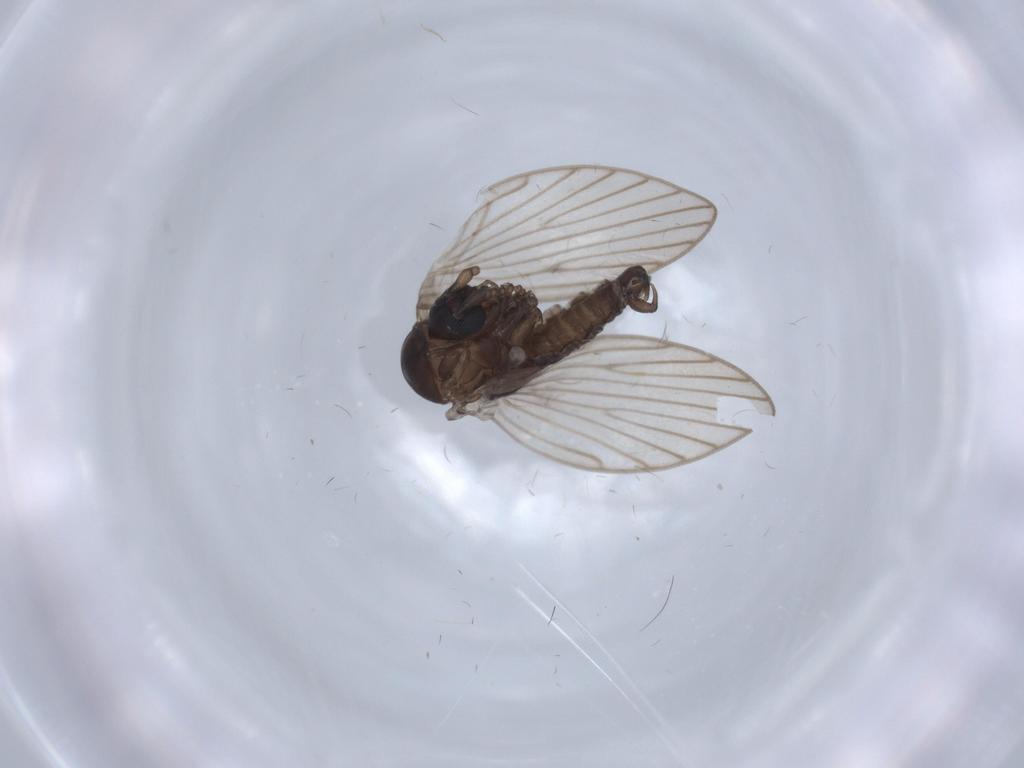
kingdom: Animalia
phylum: Arthropoda
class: Insecta
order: Diptera
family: Psychodidae
